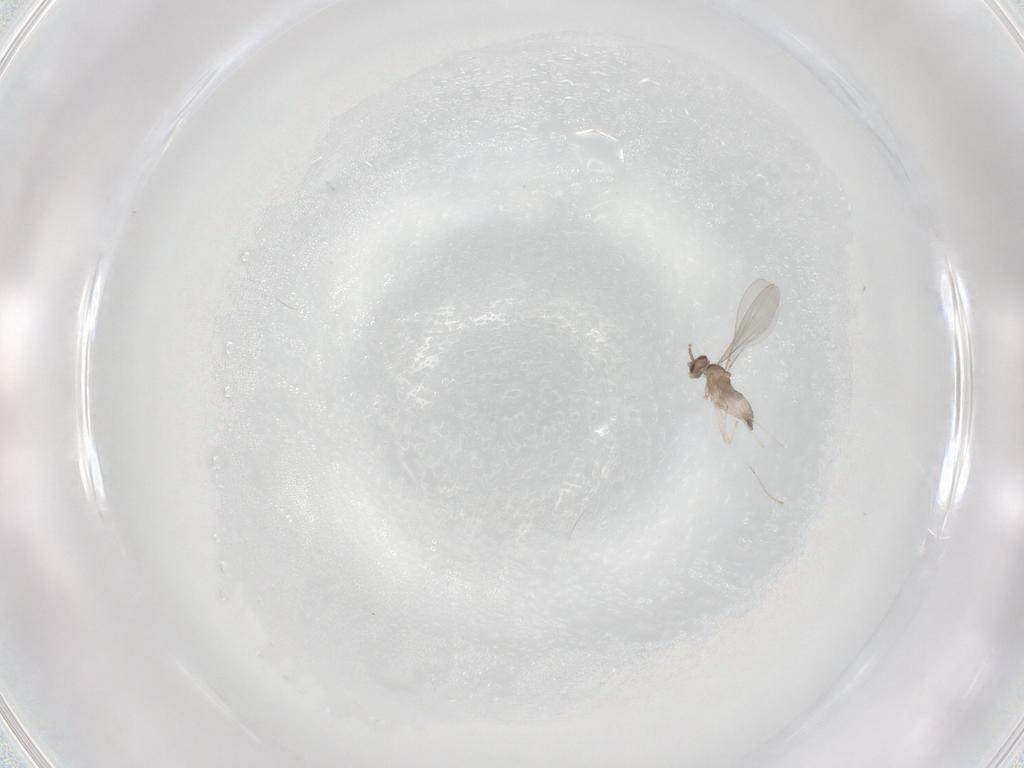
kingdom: Animalia
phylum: Arthropoda
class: Insecta
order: Diptera
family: Cecidomyiidae
